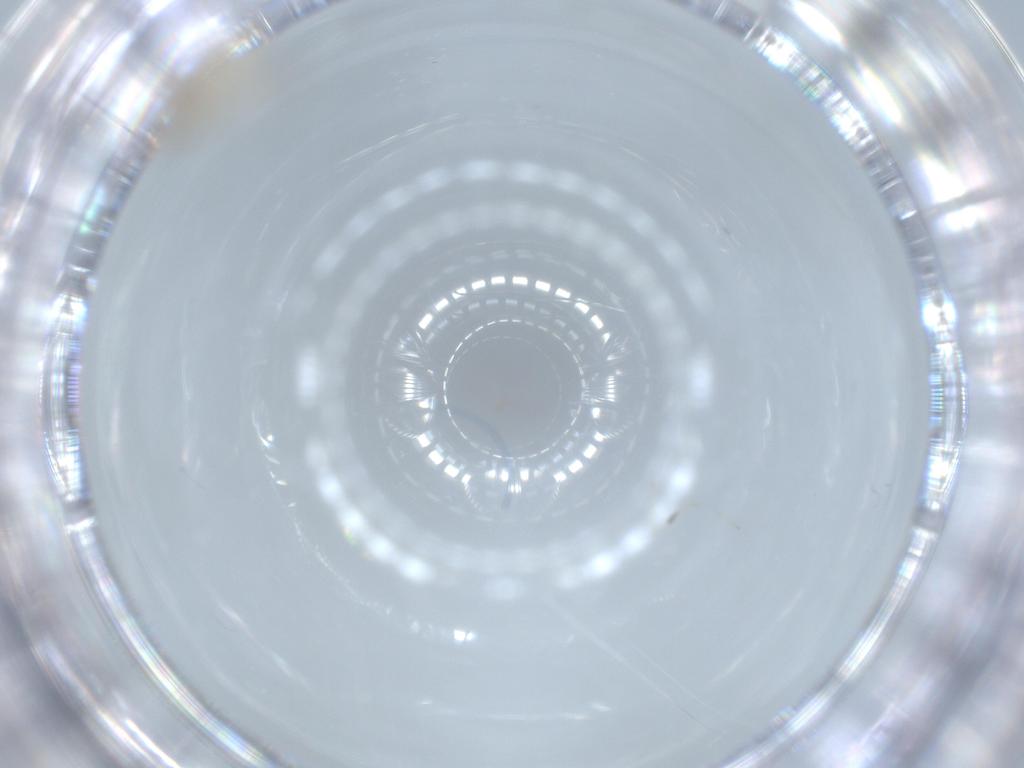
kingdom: Animalia
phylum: Arthropoda
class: Insecta
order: Diptera
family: Cecidomyiidae
